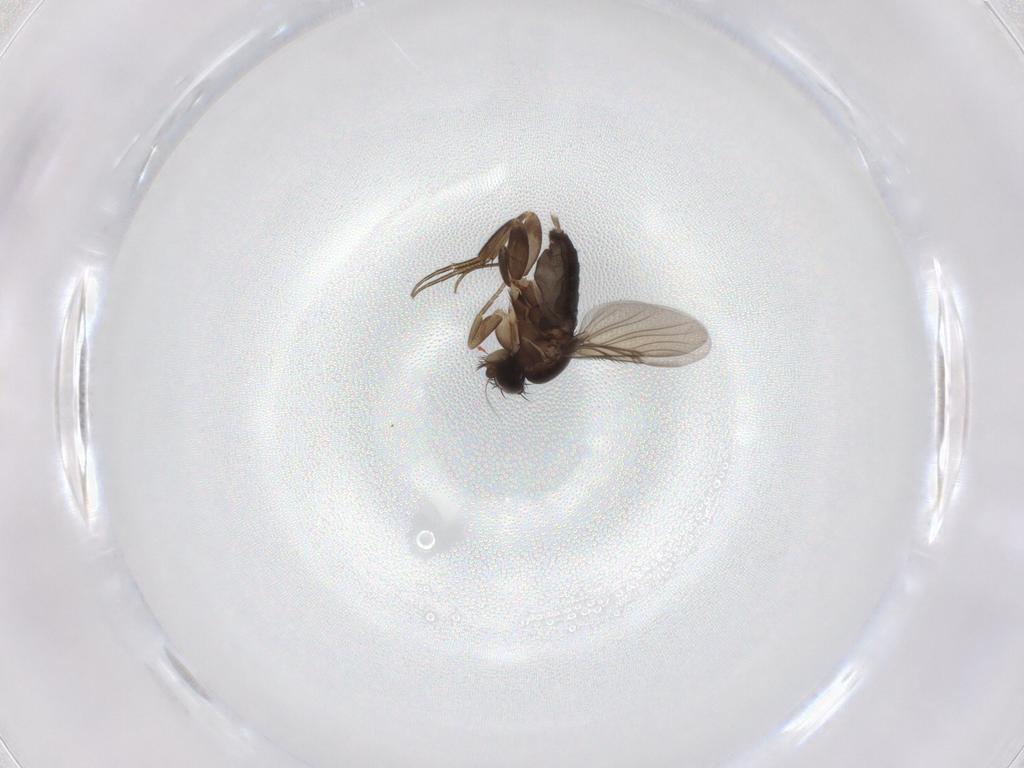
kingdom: Animalia
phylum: Arthropoda
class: Insecta
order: Diptera
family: Phoridae
